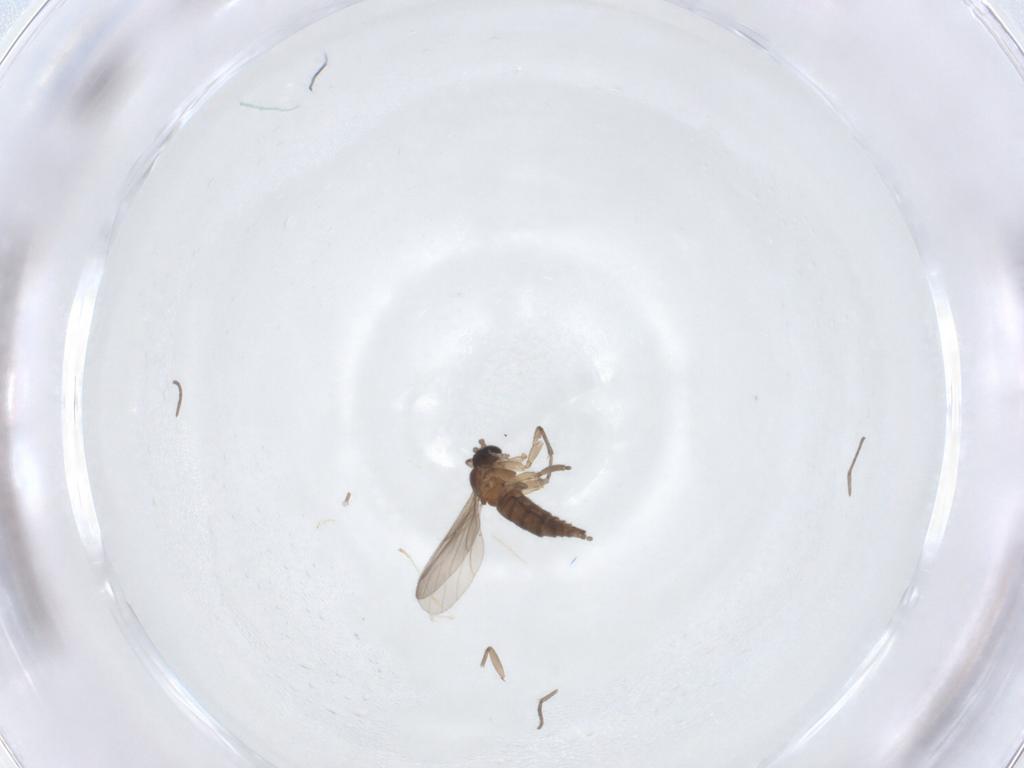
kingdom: Animalia
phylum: Arthropoda
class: Insecta
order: Diptera
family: Sciaridae
